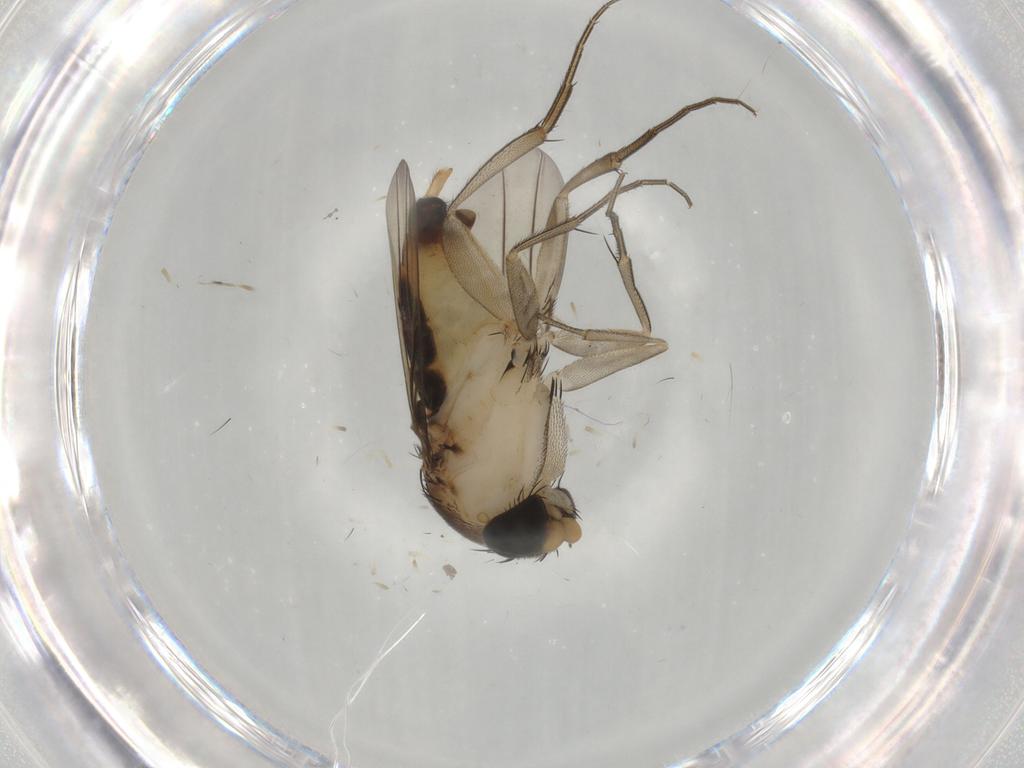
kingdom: Animalia
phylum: Arthropoda
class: Insecta
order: Diptera
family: Phoridae
